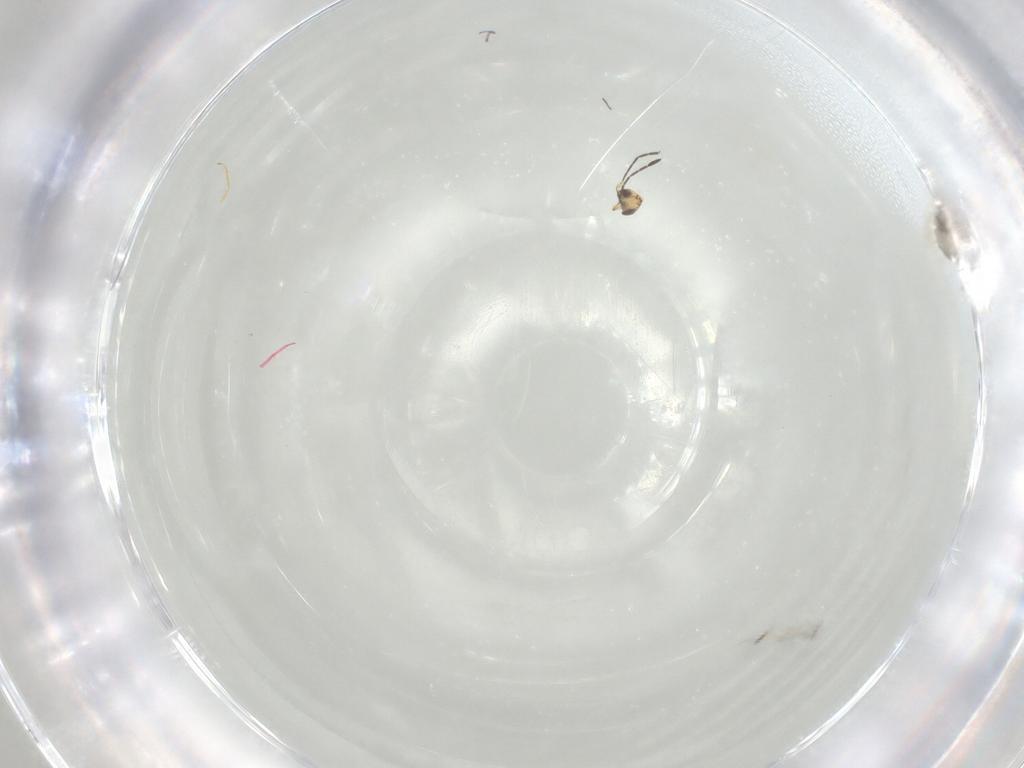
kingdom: Animalia
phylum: Arthropoda
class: Insecta
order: Hymenoptera
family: Mymaridae
